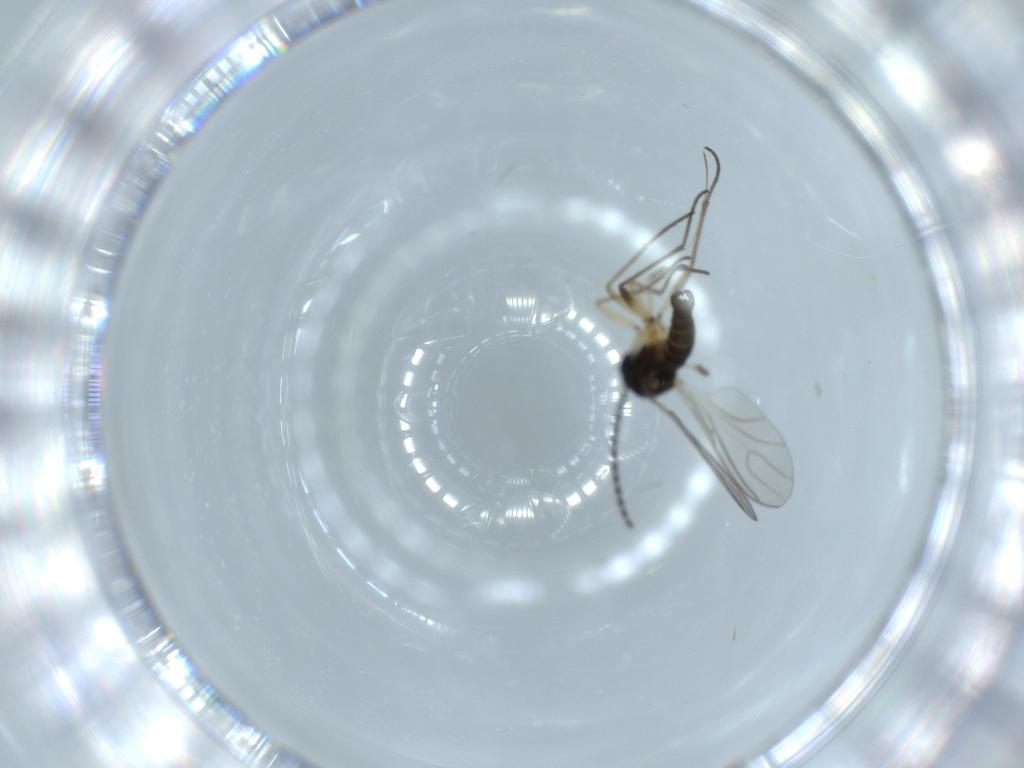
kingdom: Animalia
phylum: Arthropoda
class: Insecta
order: Diptera
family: Sciaridae
